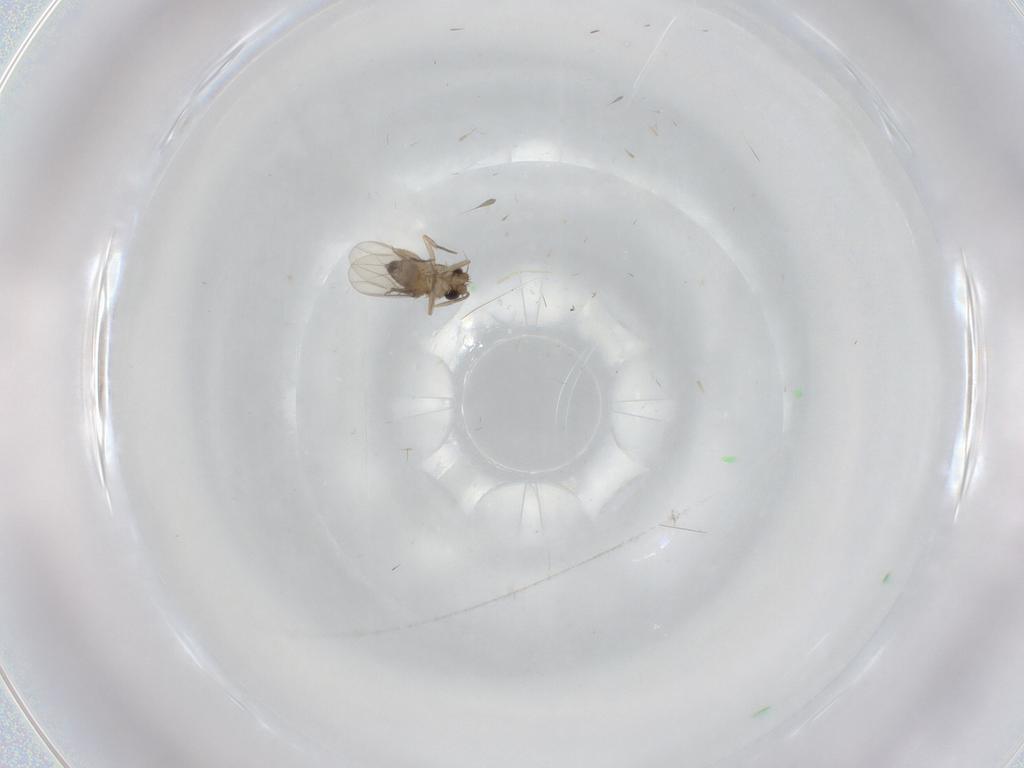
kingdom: Animalia
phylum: Arthropoda
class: Insecta
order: Diptera
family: Phoridae
